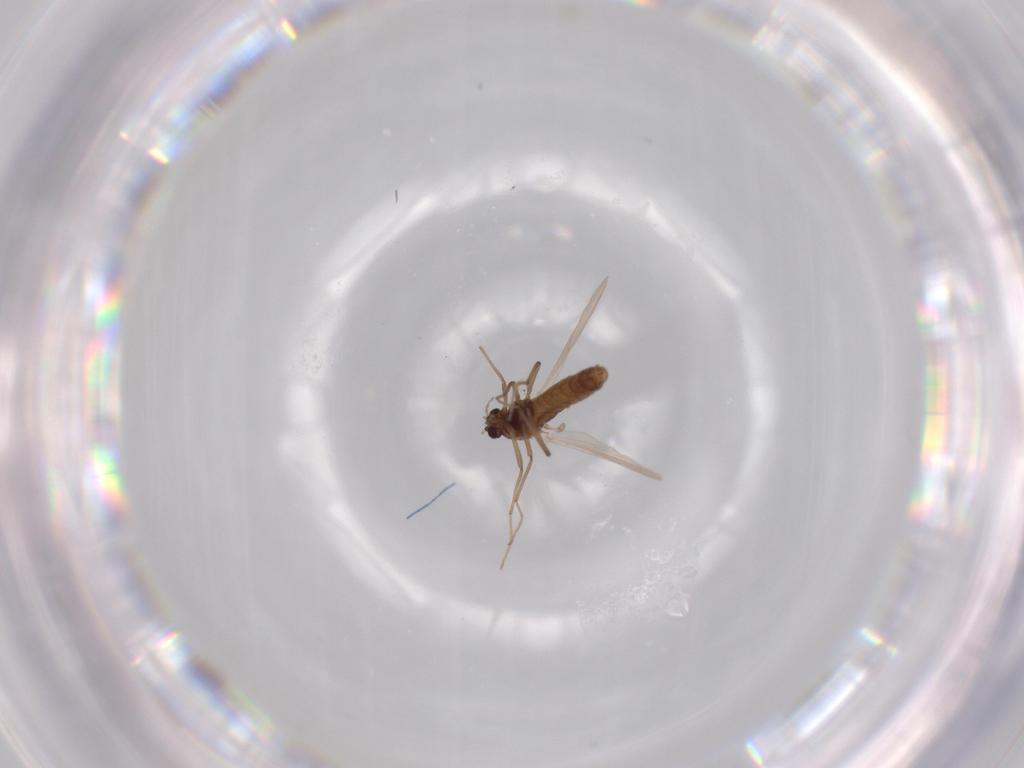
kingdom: Animalia
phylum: Arthropoda
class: Insecta
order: Diptera
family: Chironomidae
